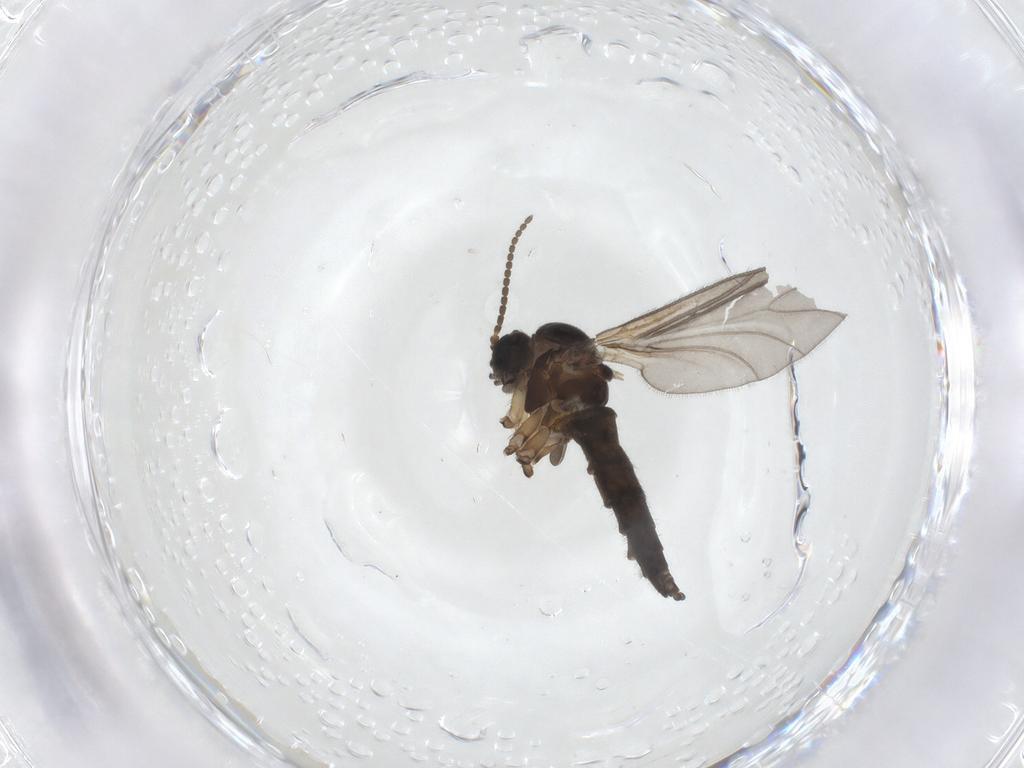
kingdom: Animalia
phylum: Arthropoda
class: Insecta
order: Diptera
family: Sciaridae
